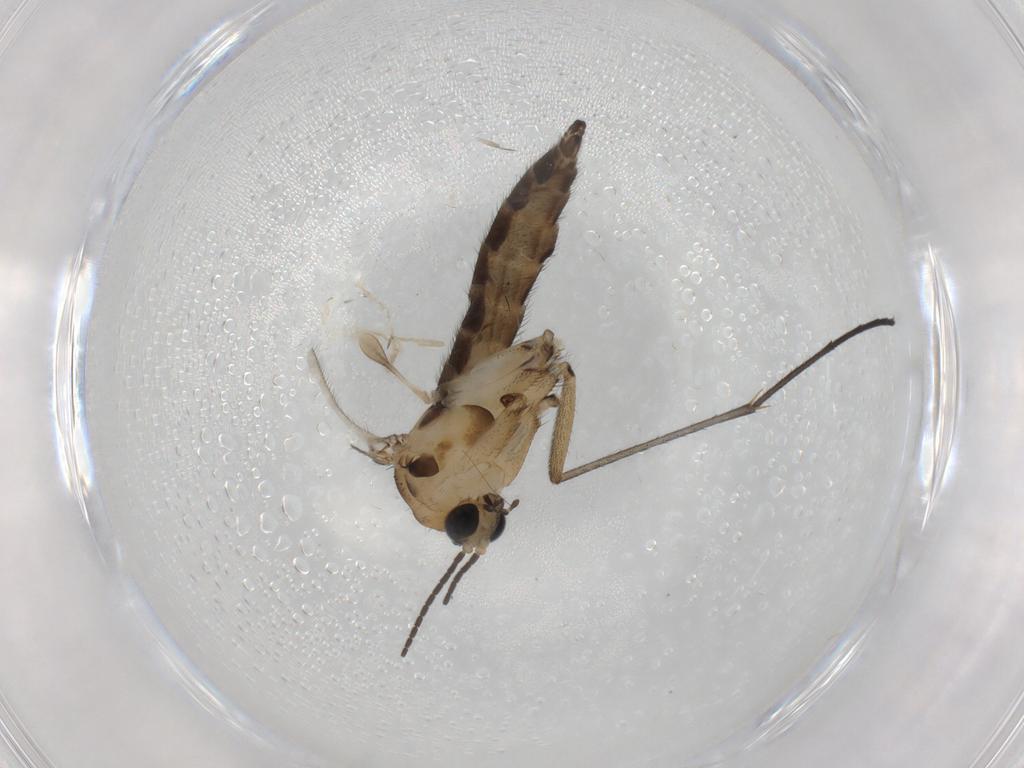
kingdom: Animalia
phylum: Arthropoda
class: Insecta
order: Diptera
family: Sciaridae
